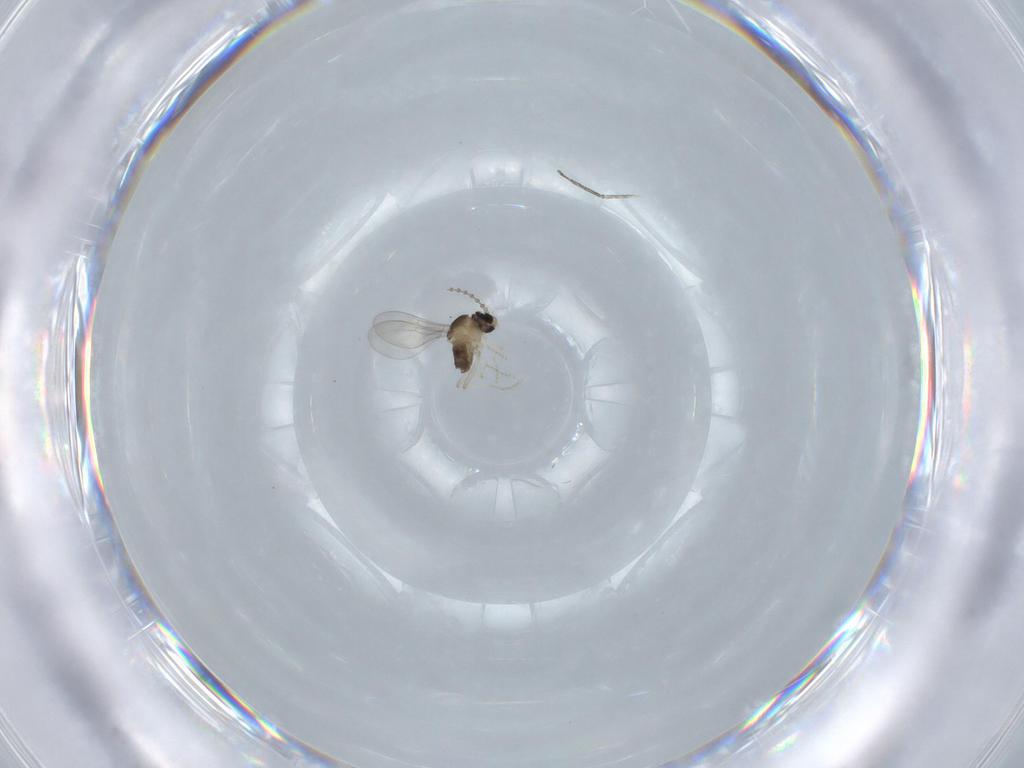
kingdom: Animalia
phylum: Arthropoda
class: Insecta
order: Diptera
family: Cecidomyiidae
